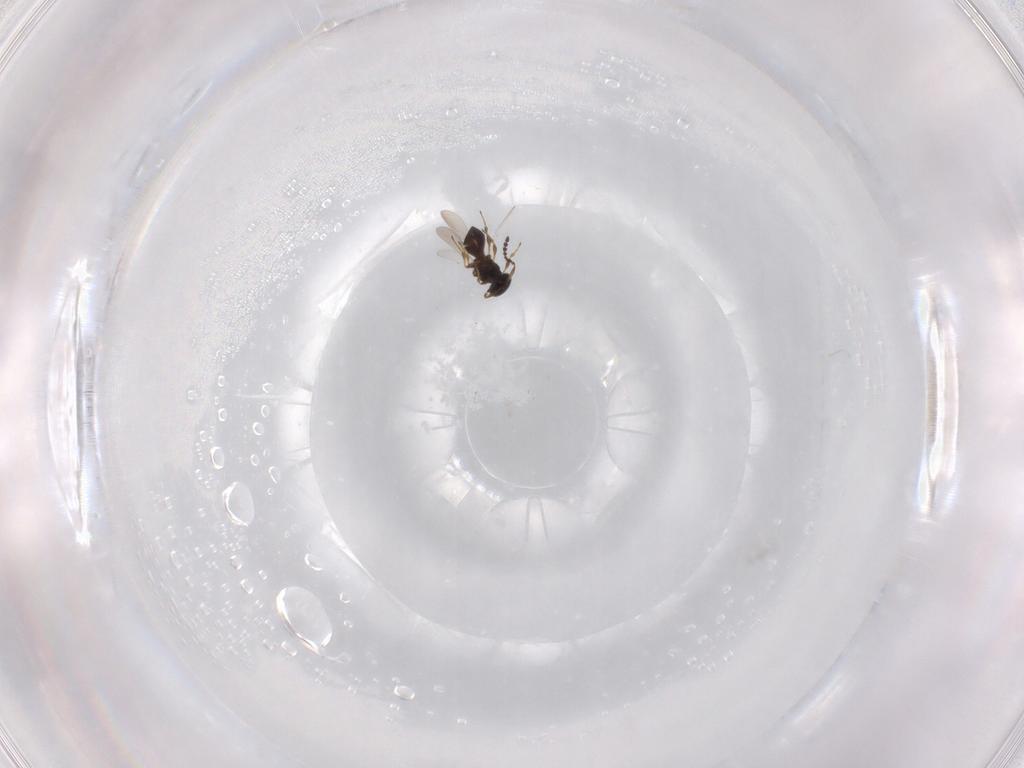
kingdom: Animalia
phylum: Arthropoda
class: Insecta
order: Hymenoptera
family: Platygastridae
